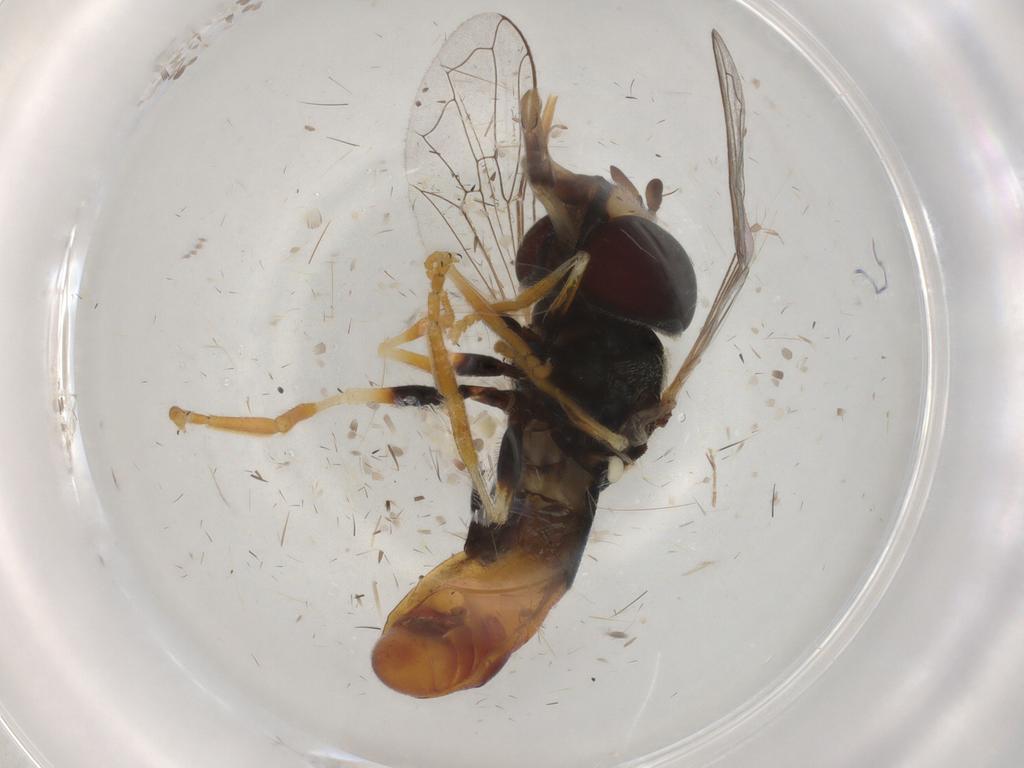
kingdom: Animalia
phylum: Arthropoda
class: Insecta
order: Diptera
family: Syrphidae
